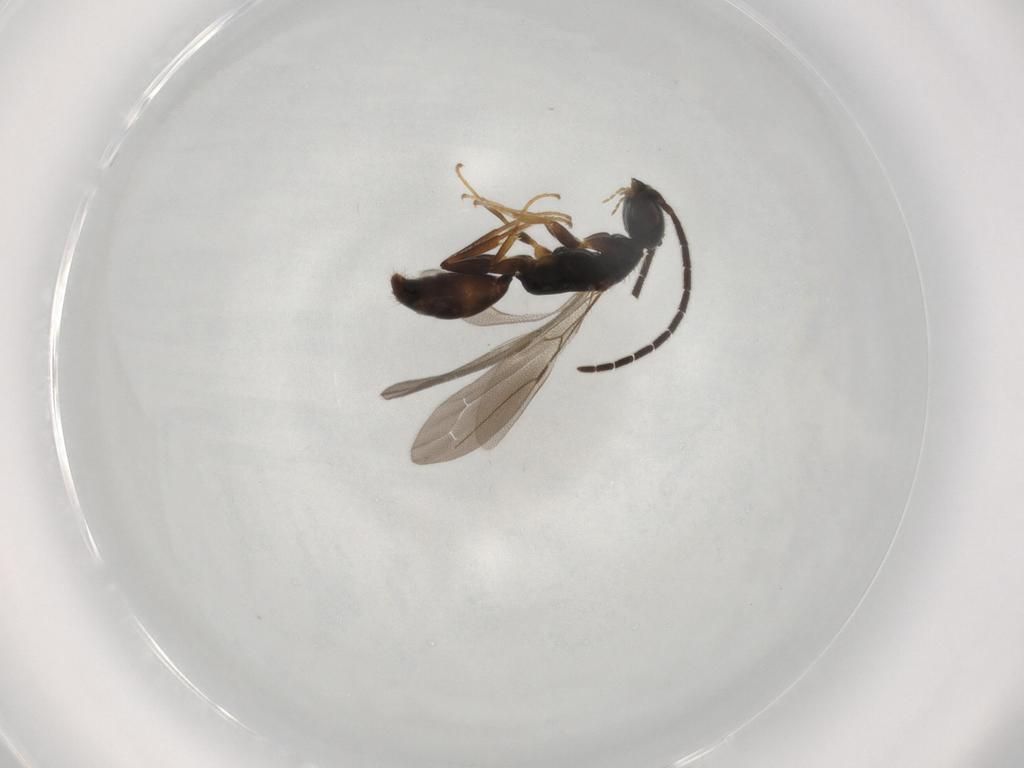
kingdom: Animalia
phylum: Arthropoda
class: Insecta
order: Hymenoptera
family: Bethylidae
